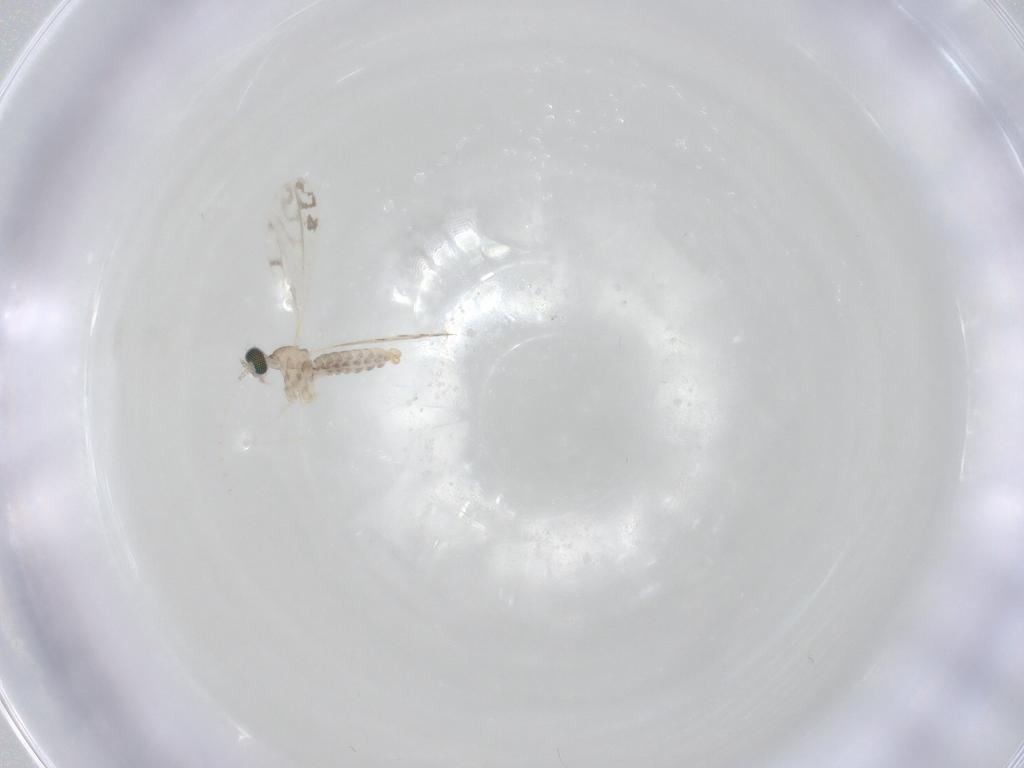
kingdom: Animalia
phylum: Arthropoda
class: Insecta
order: Diptera
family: Cecidomyiidae
